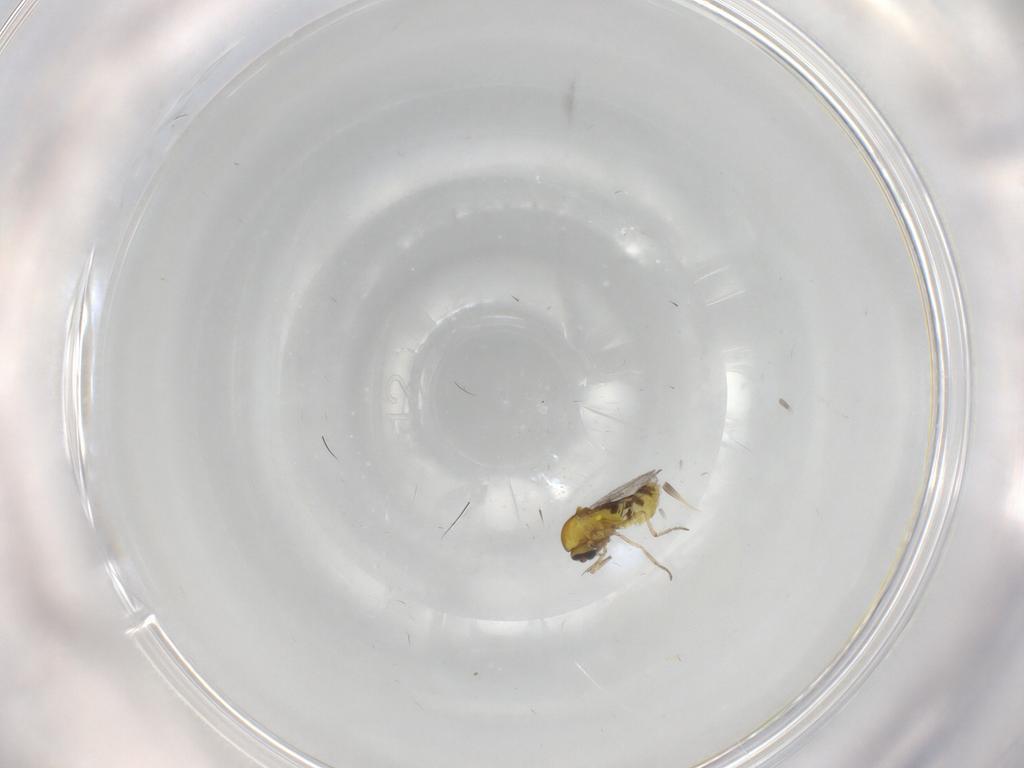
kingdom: Animalia
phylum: Arthropoda
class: Insecta
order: Diptera
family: Ceratopogonidae
